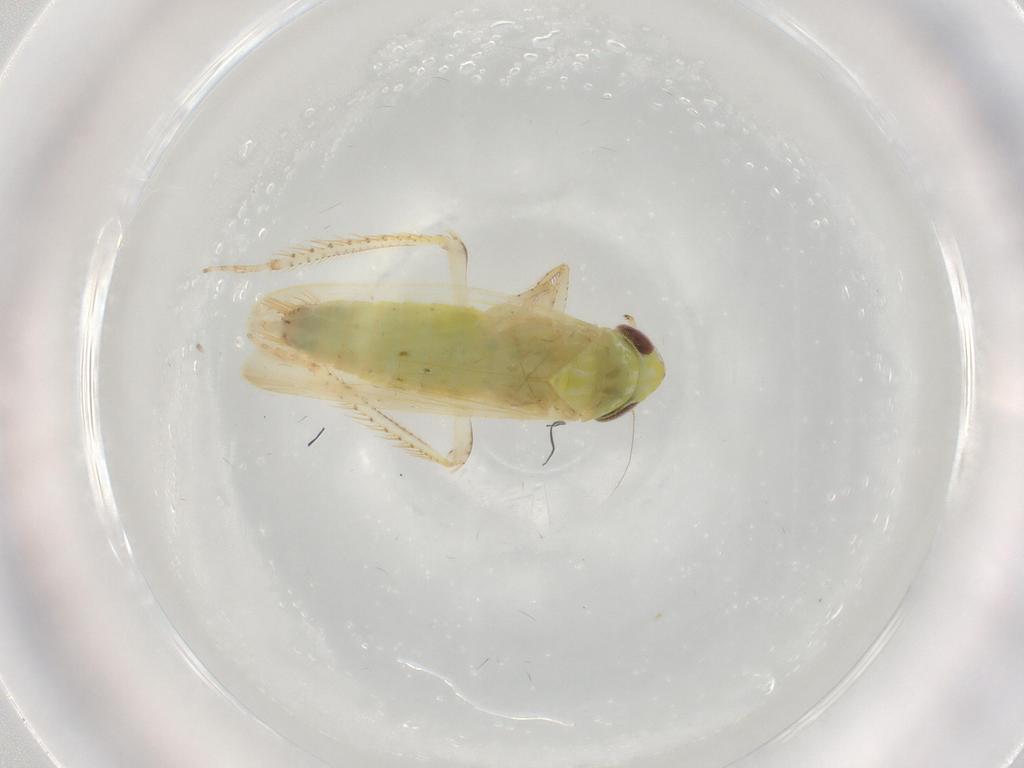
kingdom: Animalia
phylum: Arthropoda
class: Insecta
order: Hemiptera
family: Cicadellidae
